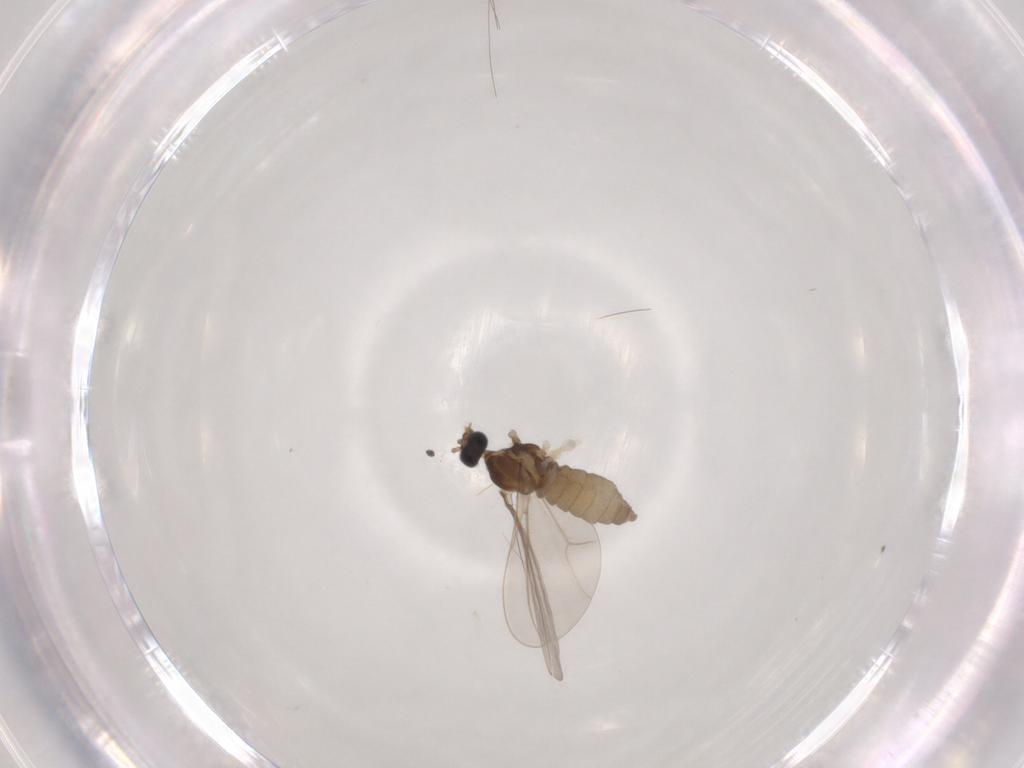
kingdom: Animalia
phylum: Arthropoda
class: Insecta
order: Diptera
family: Cecidomyiidae
